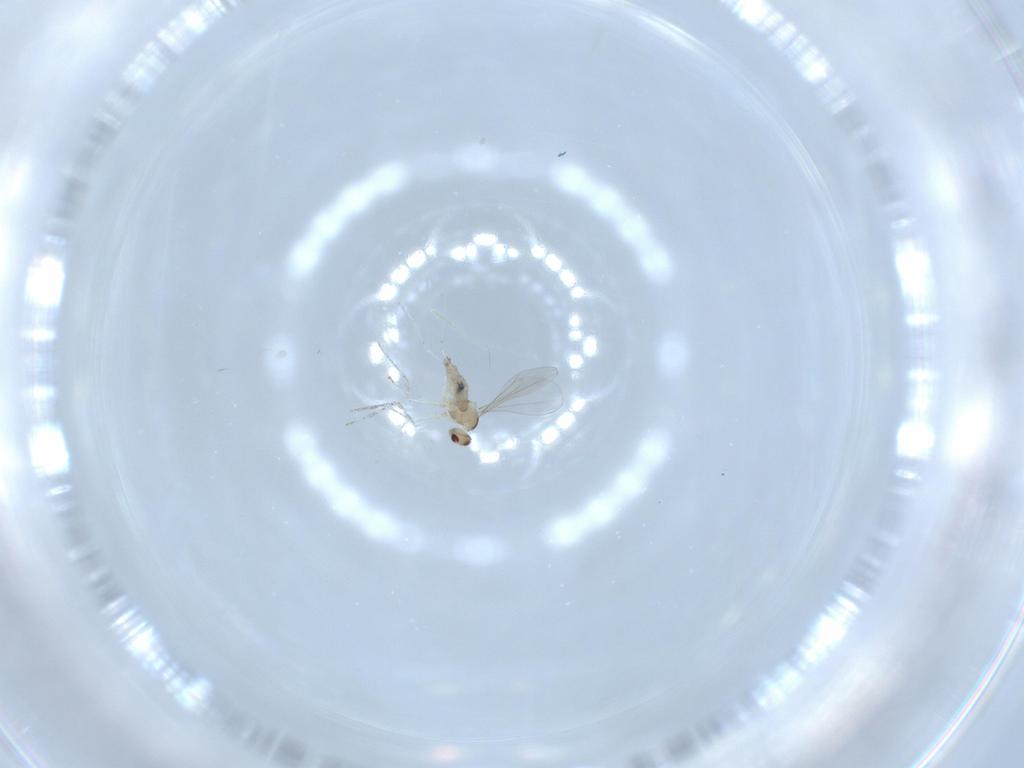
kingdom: Animalia
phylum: Arthropoda
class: Insecta
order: Diptera
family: Cecidomyiidae
